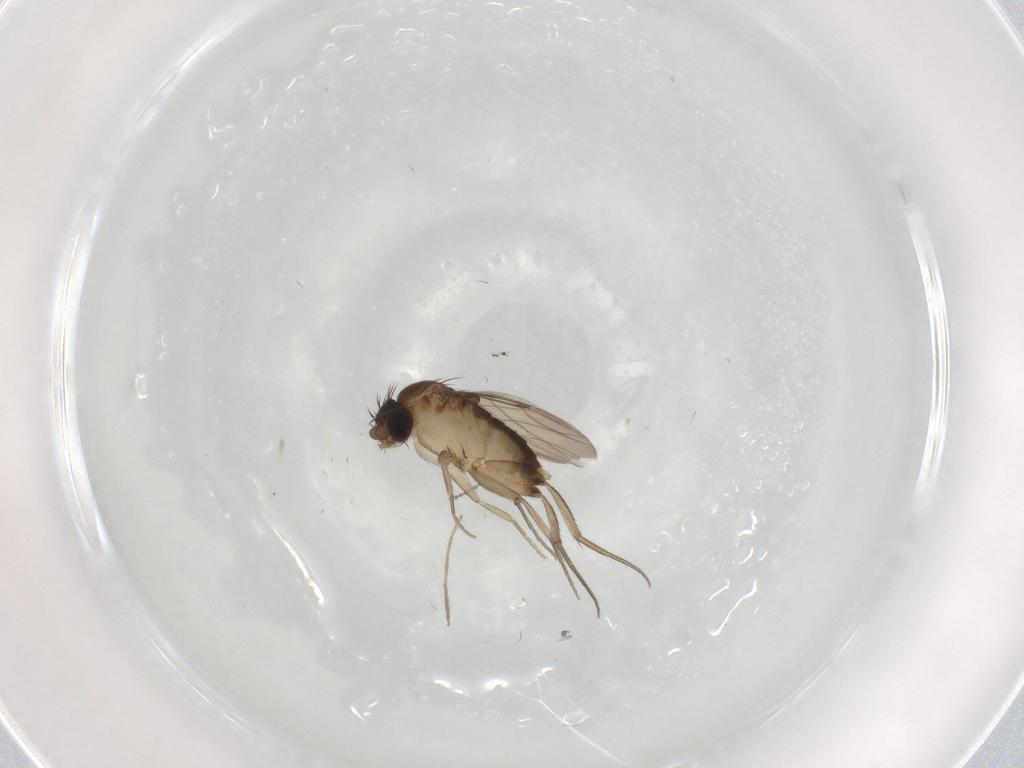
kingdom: Animalia
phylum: Arthropoda
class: Insecta
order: Diptera
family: Phoridae
